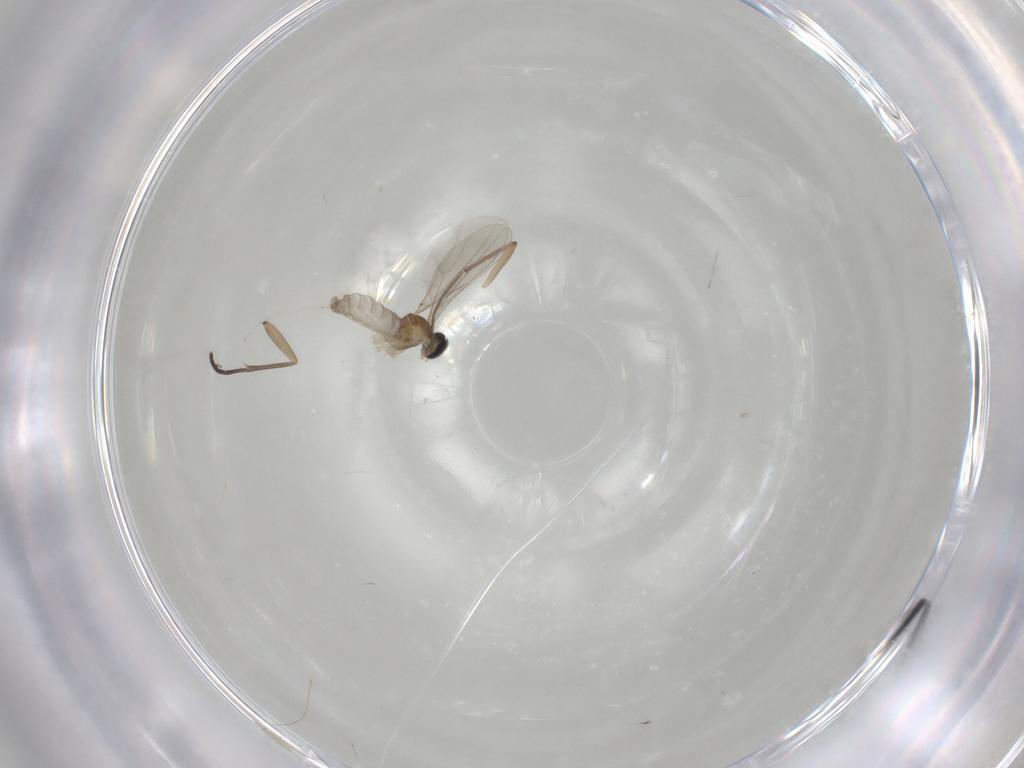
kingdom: Animalia
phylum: Arthropoda
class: Insecta
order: Diptera
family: Cecidomyiidae
